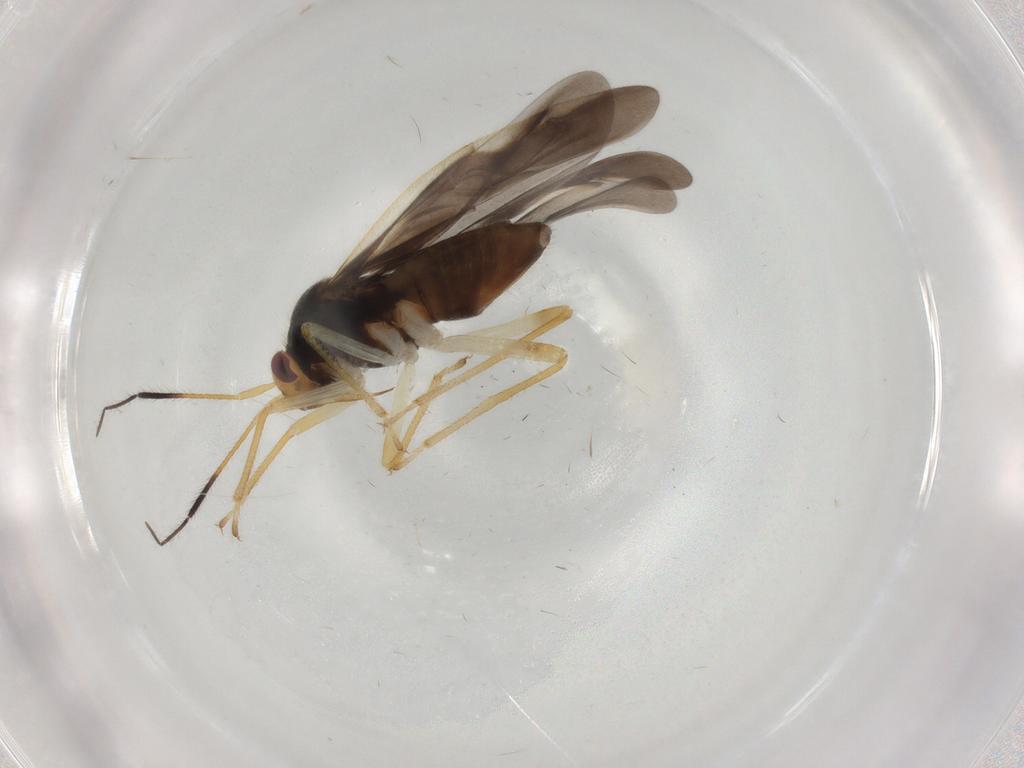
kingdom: Animalia
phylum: Arthropoda
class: Insecta
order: Hemiptera
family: Miridae
